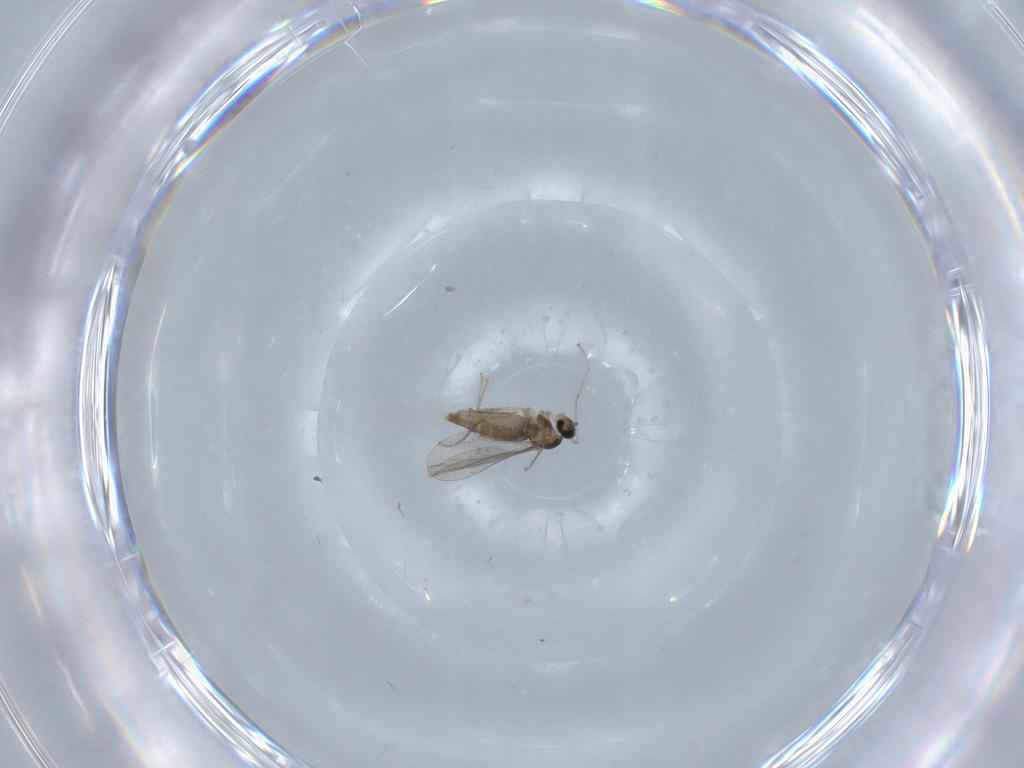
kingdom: Animalia
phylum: Arthropoda
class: Insecta
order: Diptera
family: Ceratopogonidae
